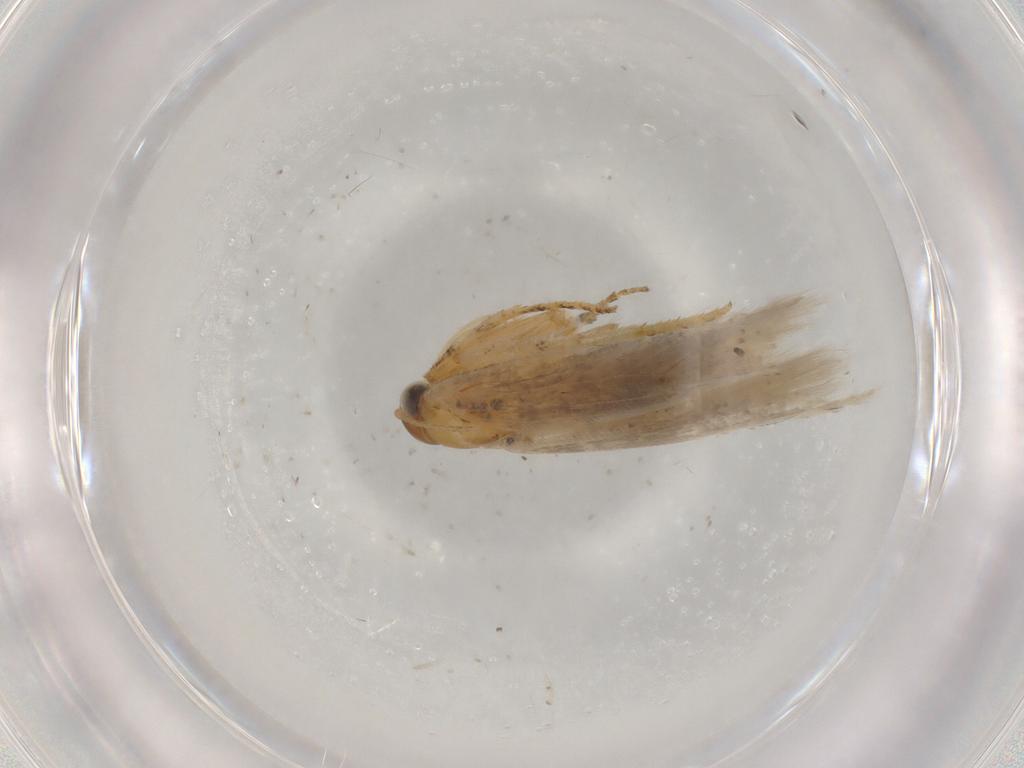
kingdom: Animalia
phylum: Arthropoda
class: Insecta
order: Lepidoptera
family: Gelechiidae
